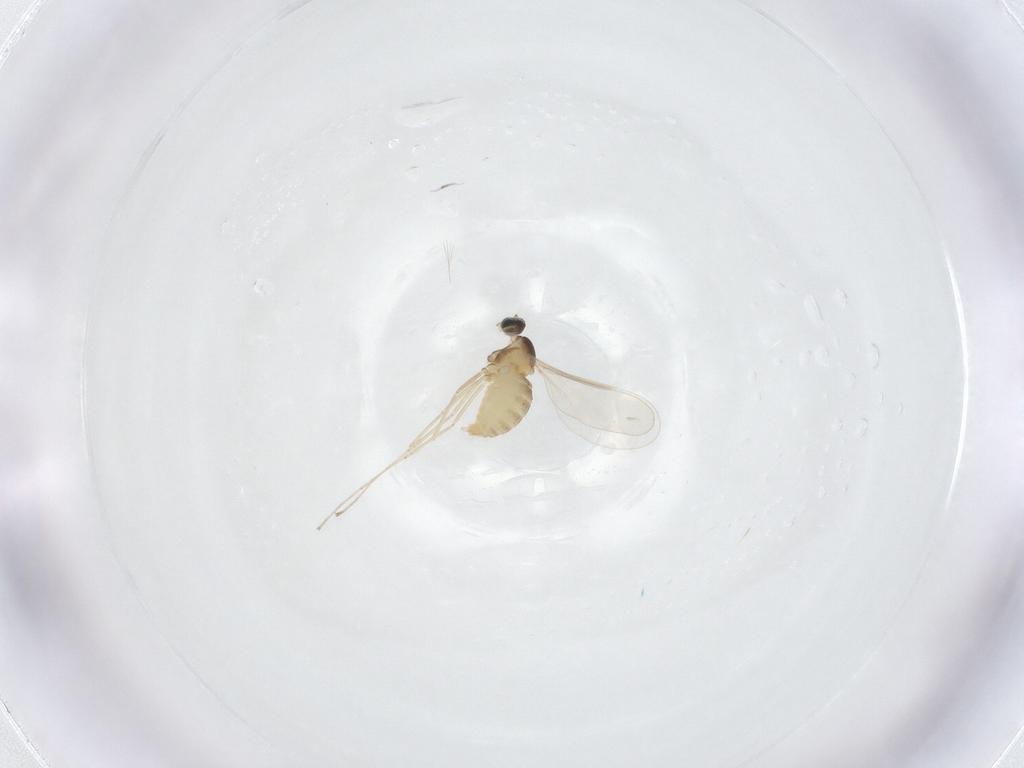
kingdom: Animalia
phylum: Arthropoda
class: Insecta
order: Diptera
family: Cecidomyiidae
